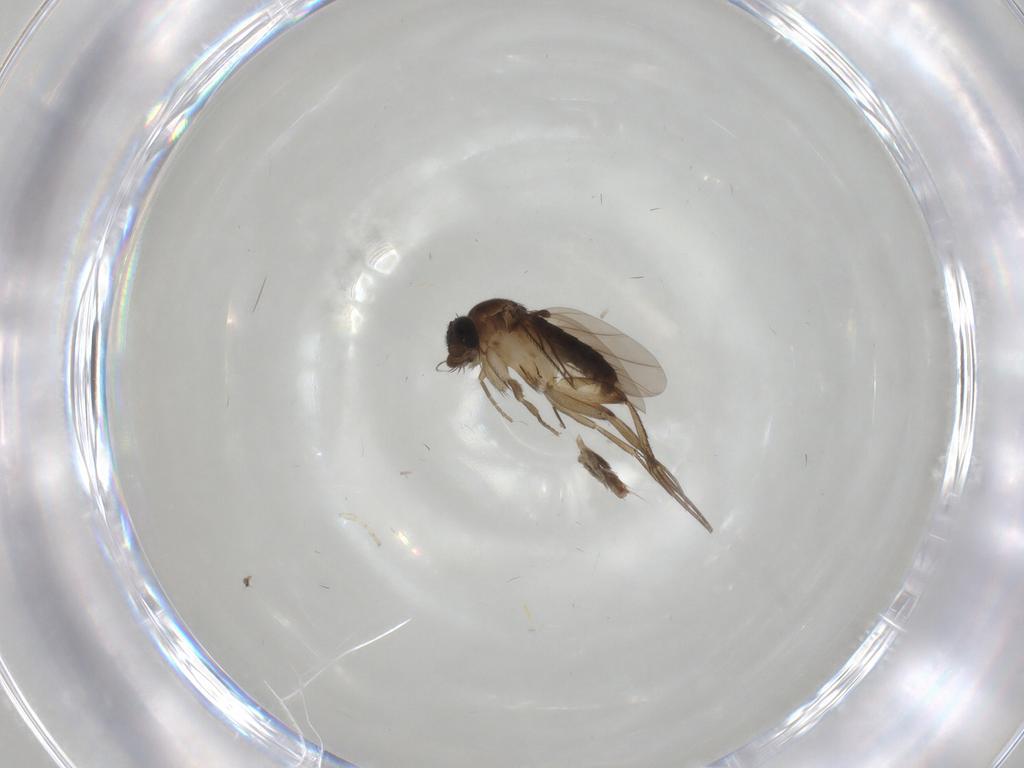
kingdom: Animalia
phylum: Arthropoda
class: Insecta
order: Diptera
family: Phoridae
